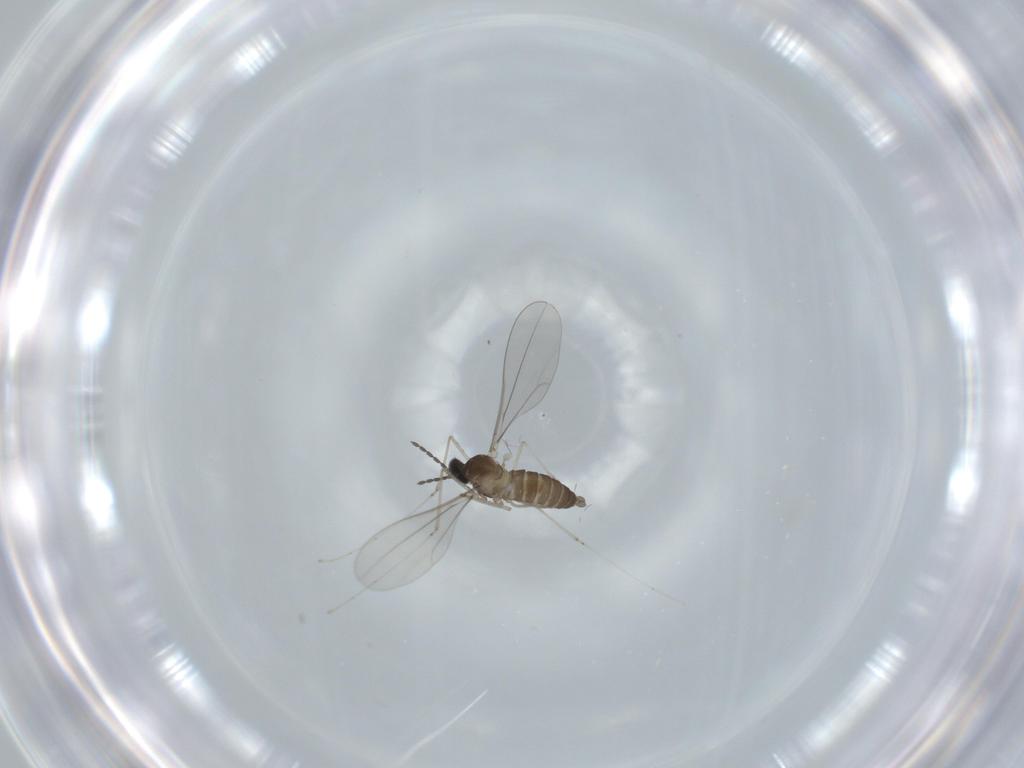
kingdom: Animalia
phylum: Arthropoda
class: Insecta
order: Diptera
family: Cecidomyiidae
